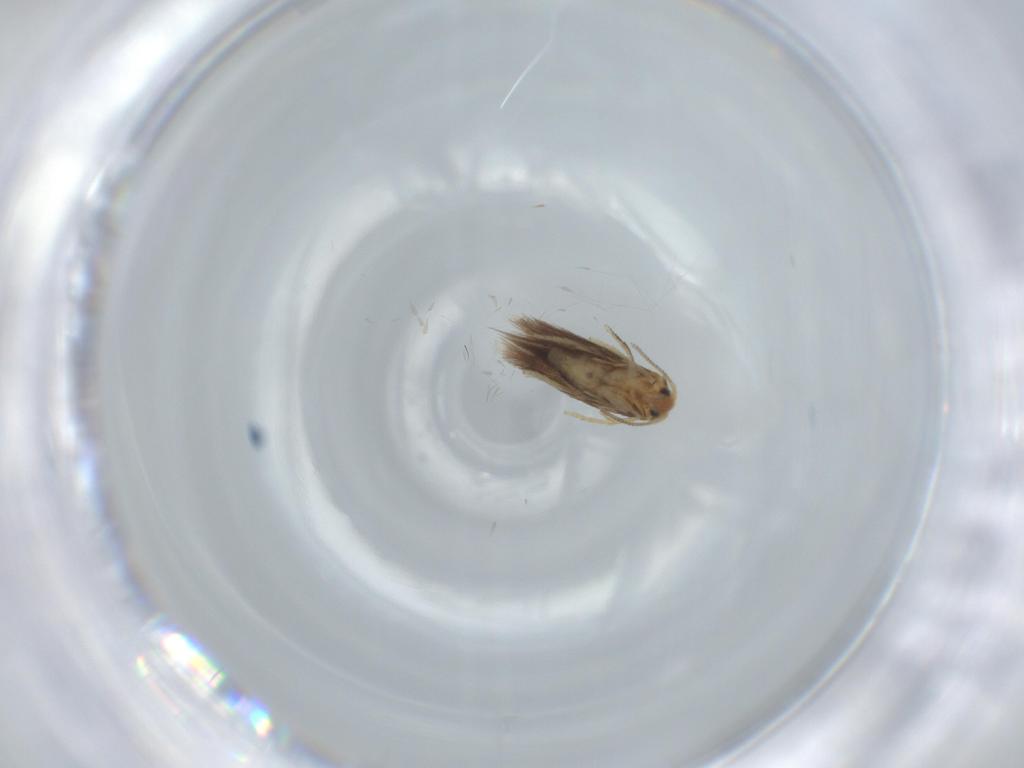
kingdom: Animalia
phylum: Arthropoda
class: Insecta
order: Lepidoptera
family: Nepticulidae
